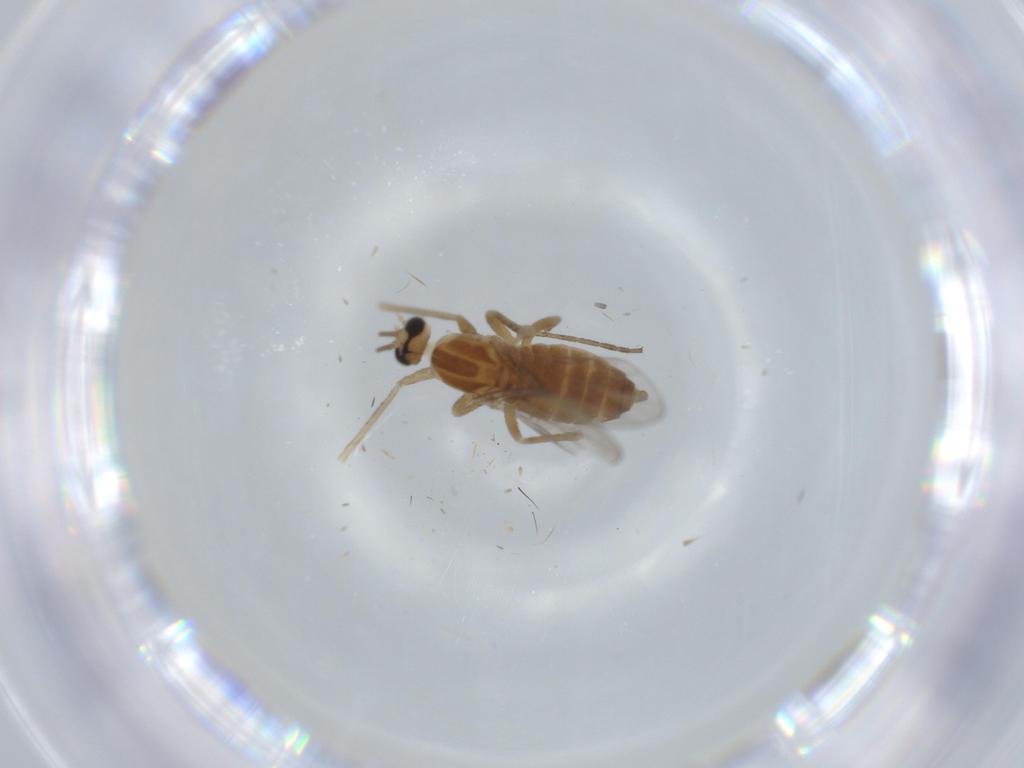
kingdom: Animalia
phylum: Arthropoda
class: Insecta
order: Diptera
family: Cecidomyiidae
